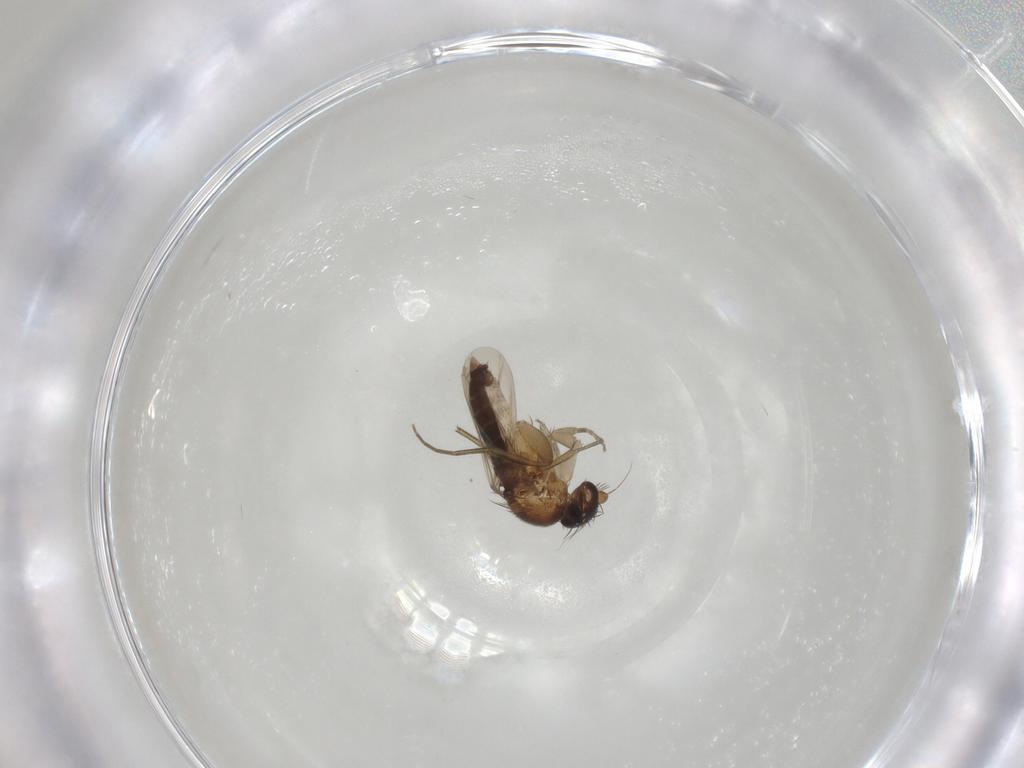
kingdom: Animalia
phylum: Arthropoda
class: Insecta
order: Diptera
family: Phoridae
